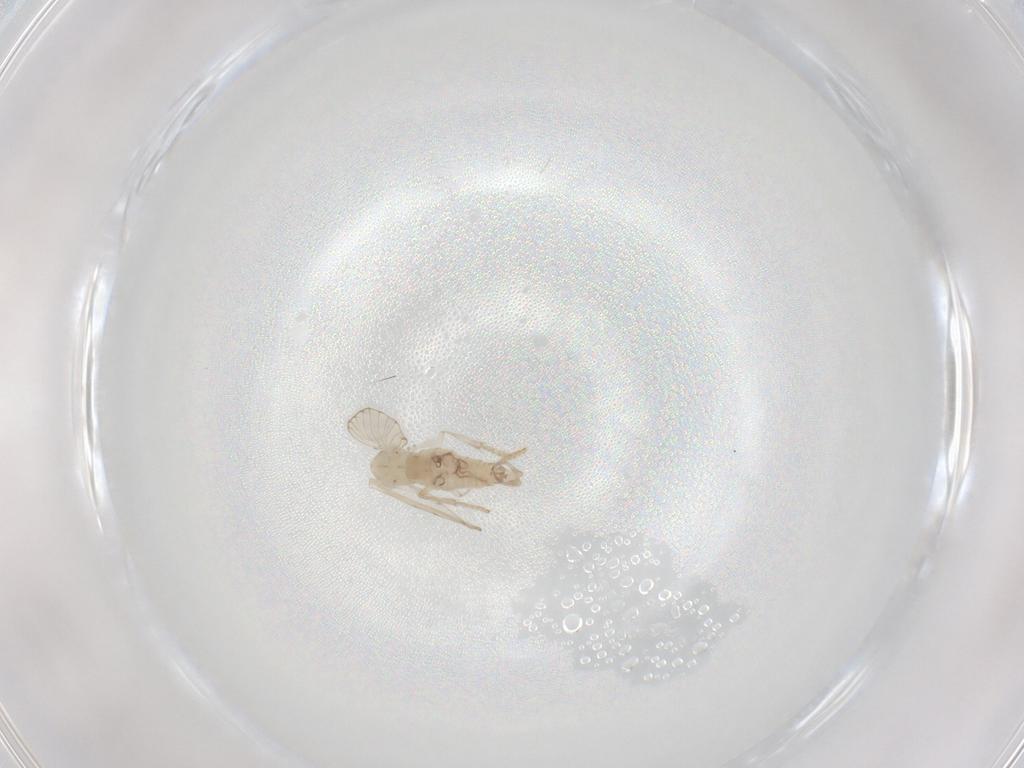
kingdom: Animalia
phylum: Arthropoda
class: Insecta
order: Diptera
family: Psychodidae
